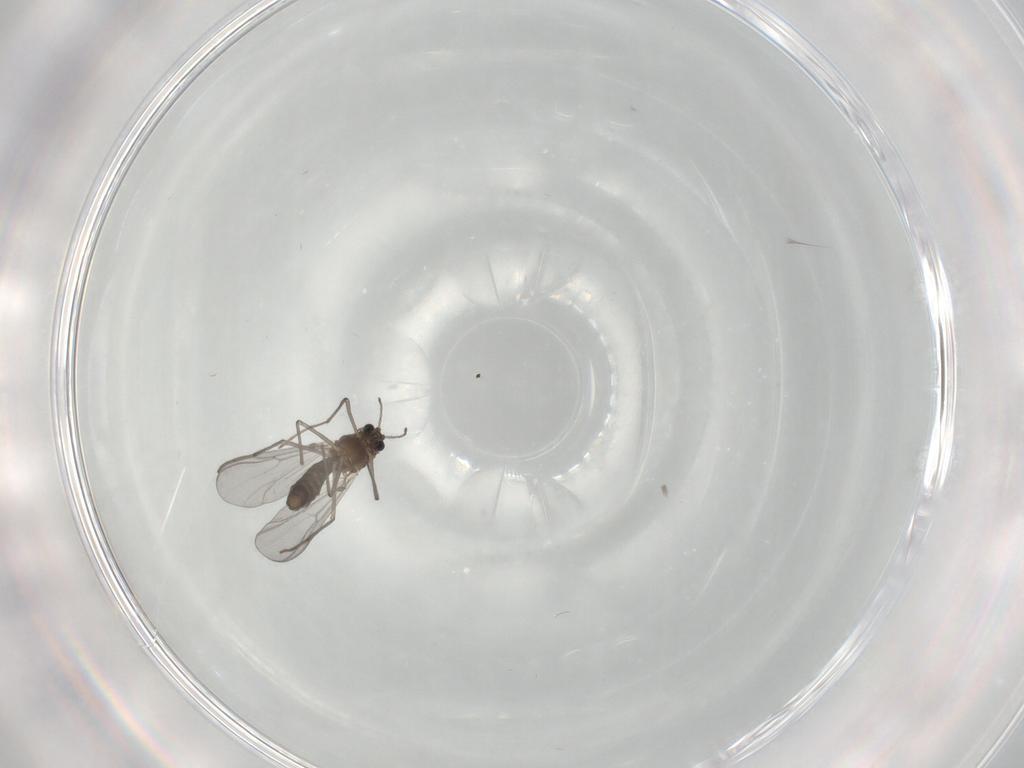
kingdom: Animalia
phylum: Arthropoda
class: Insecta
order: Diptera
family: Chironomidae
